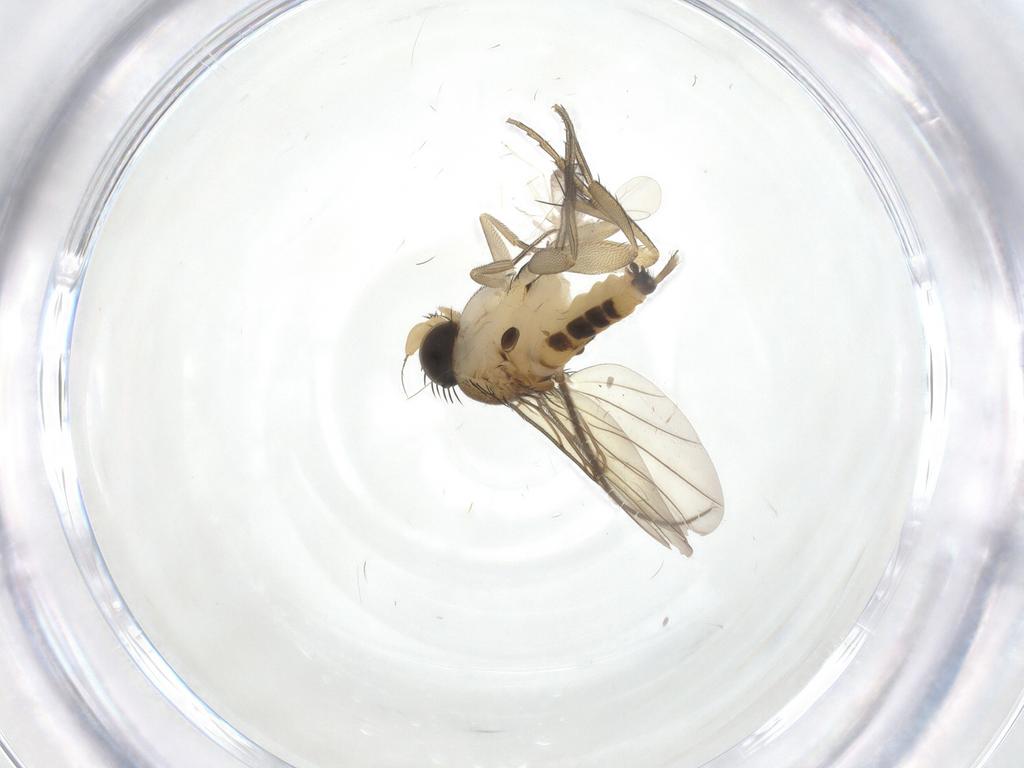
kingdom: Animalia
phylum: Arthropoda
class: Insecta
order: Diptera
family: Phoridae
